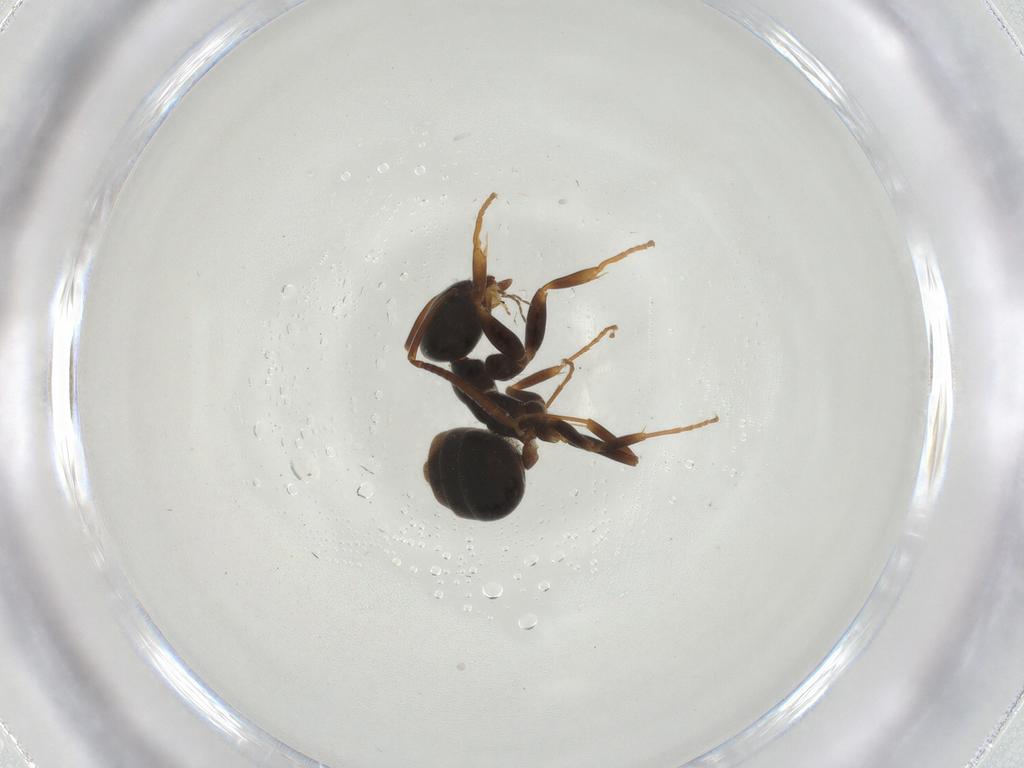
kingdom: Animalia
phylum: Arthropoda
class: Insecta
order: Hymenoptera
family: Formicidae
